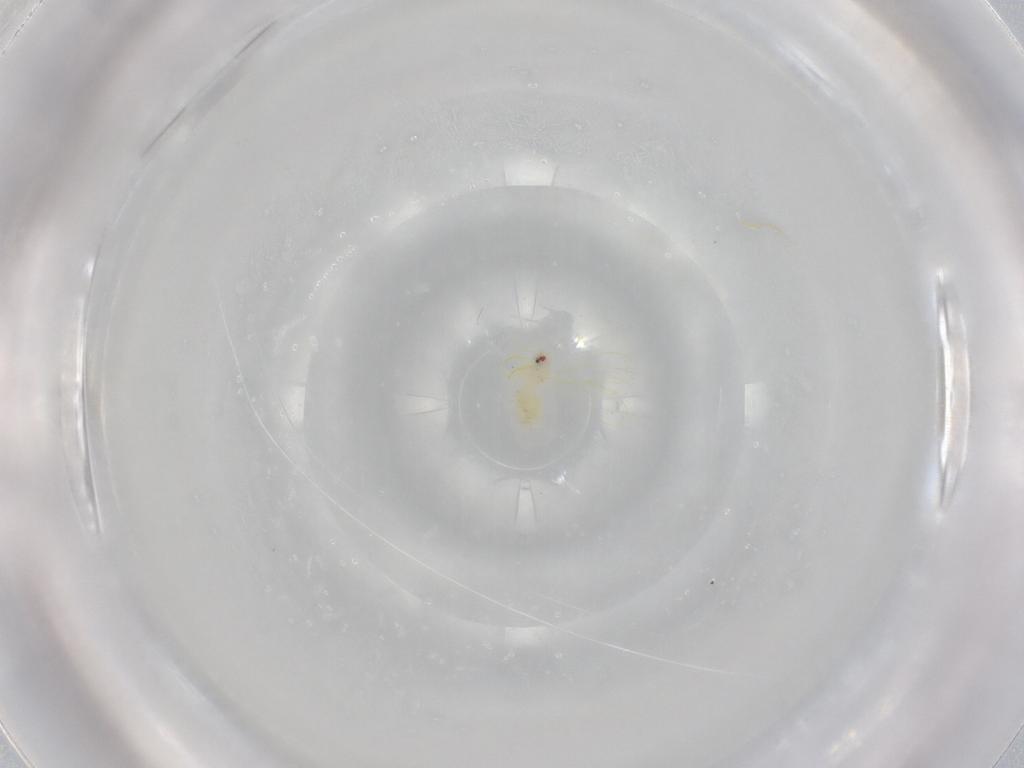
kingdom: Animalia
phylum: Arthropoda
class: Insecta
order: Hemiptera
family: Aleyrodidae
